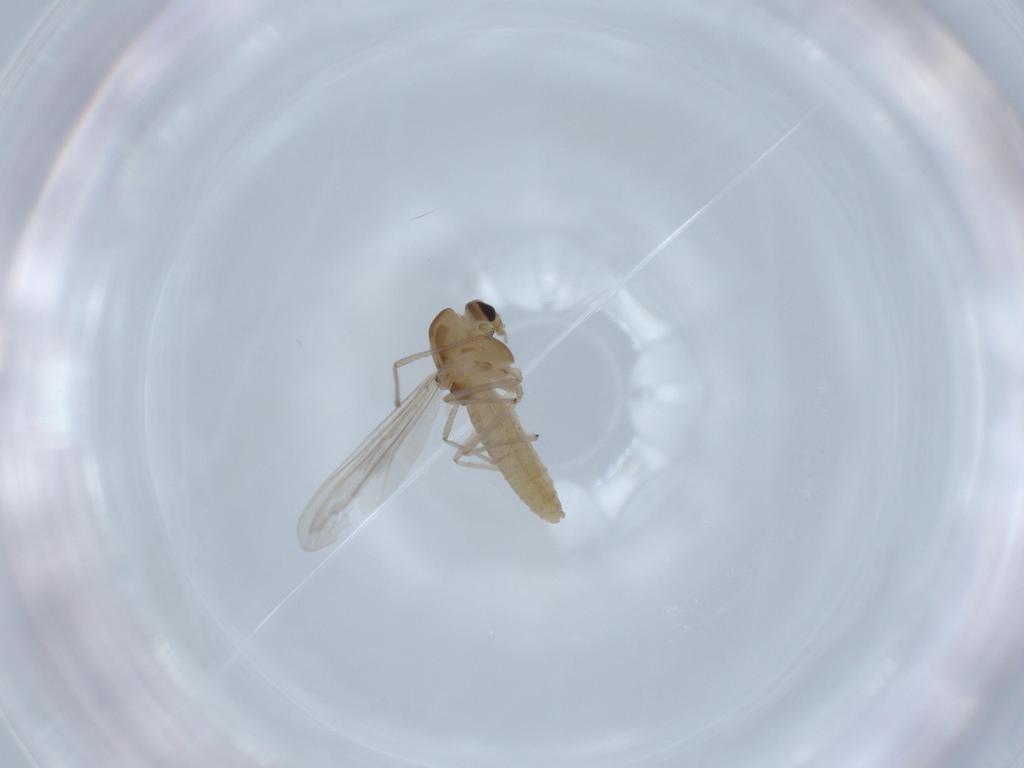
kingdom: Animalia
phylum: Arthropoda
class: Insecta
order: Diptera
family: Chironomidae
